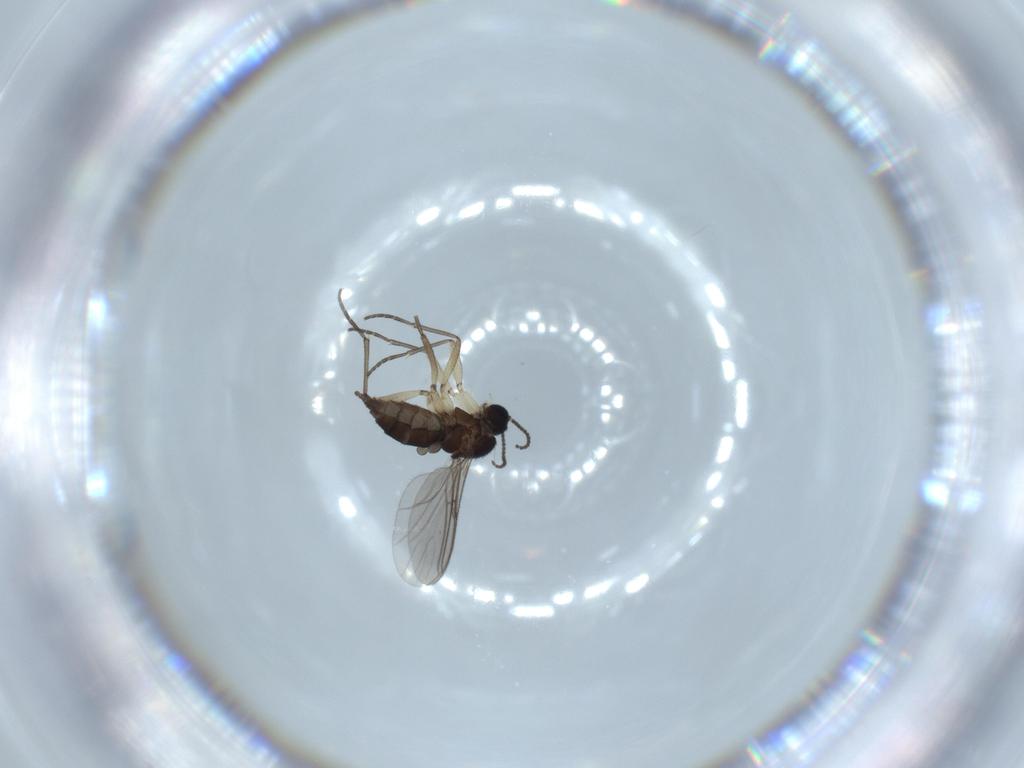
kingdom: Animalia
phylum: Arthropoda
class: Insecta
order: Diptera
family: Sciaridae
